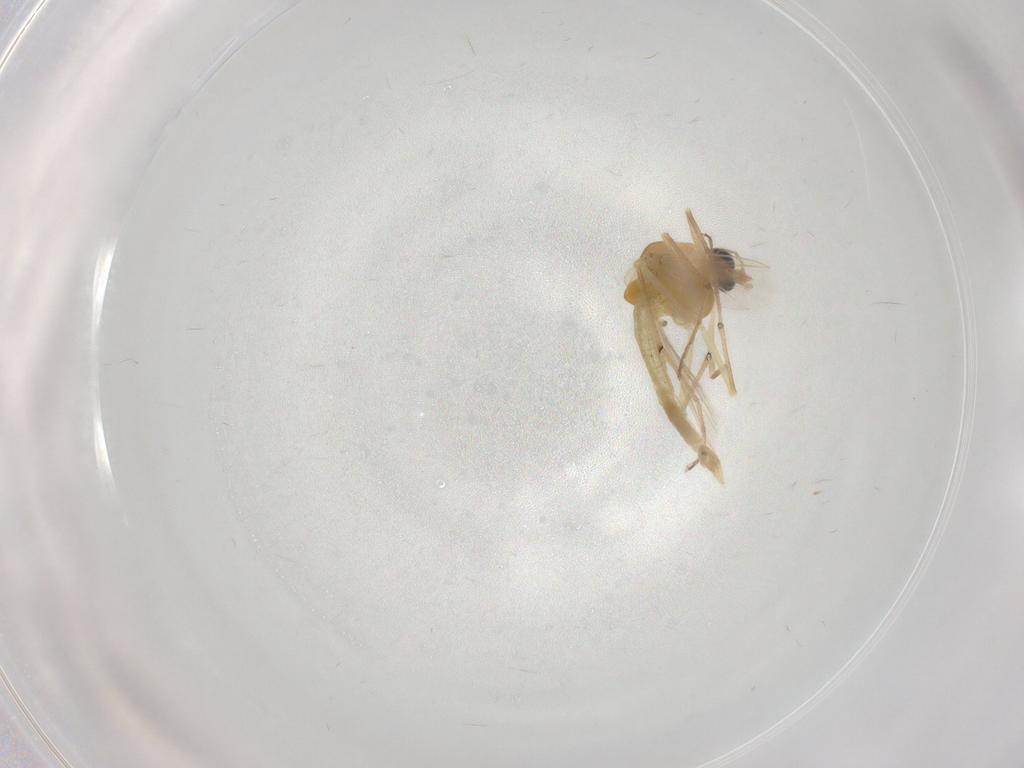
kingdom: Animalia
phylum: Arthropoda
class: Insecta
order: Diptera
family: Chironomidae
